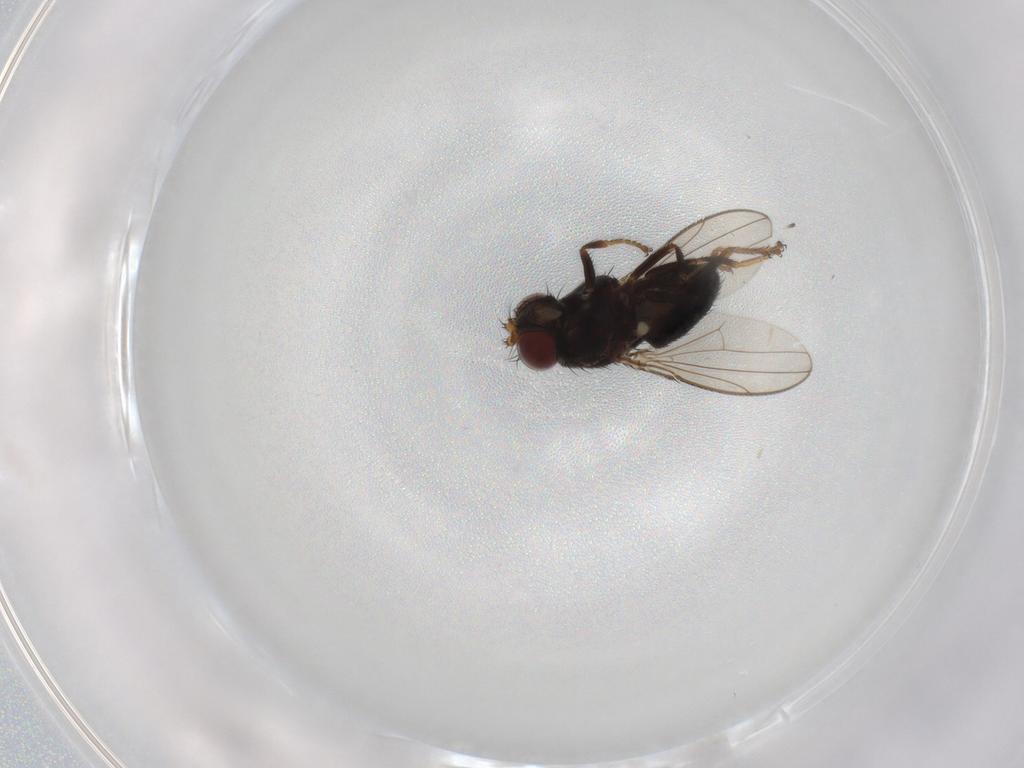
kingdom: Animalia
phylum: Arthropoda
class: Insecta
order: Diptera
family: Ephydridae
